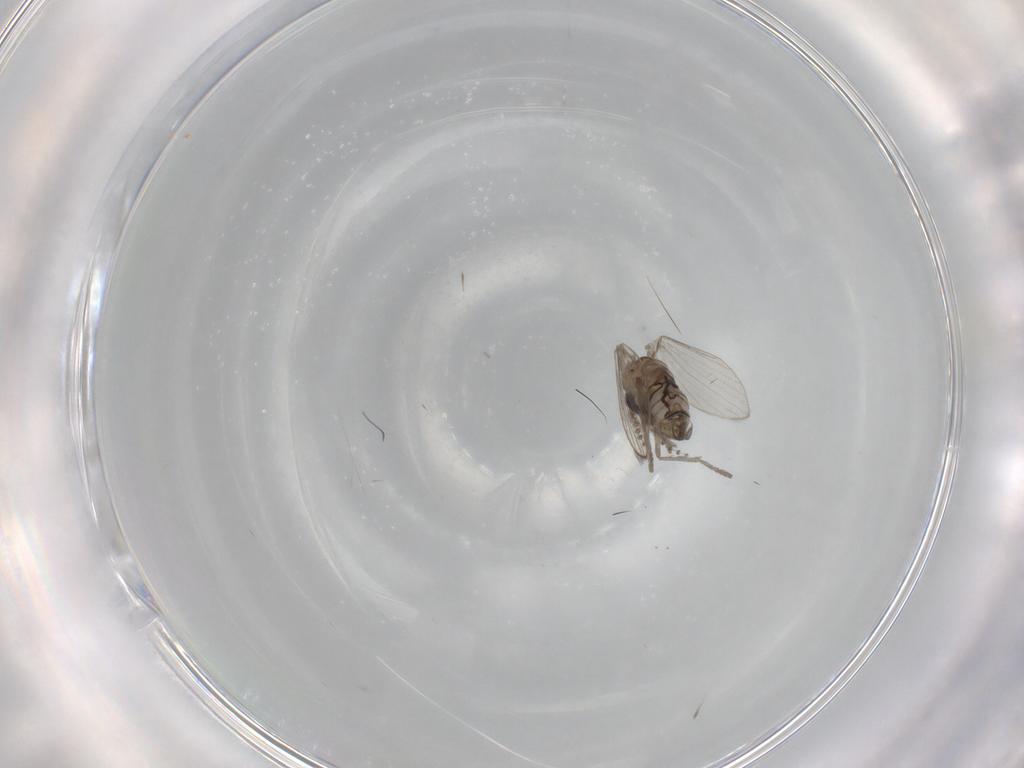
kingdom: Animalia
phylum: Arthropoda
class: Insecta
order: Diptera
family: Psychodidae
